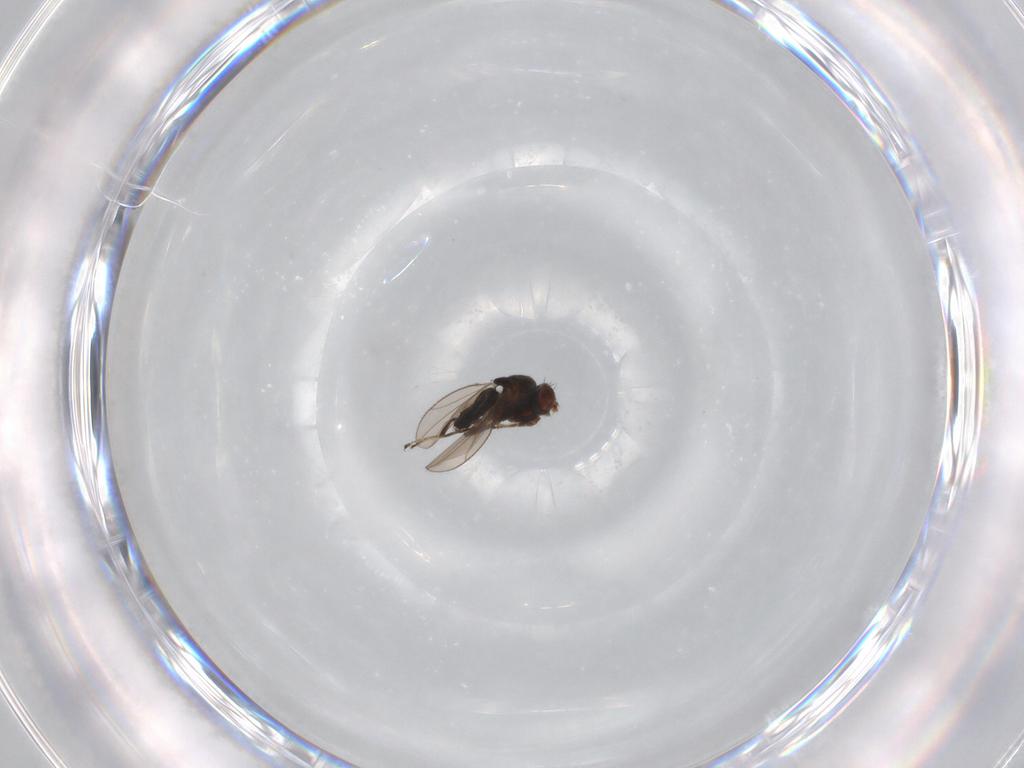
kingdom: Animalia
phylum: Arthropoda
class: Insecta
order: Diptera
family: Ephydridae
